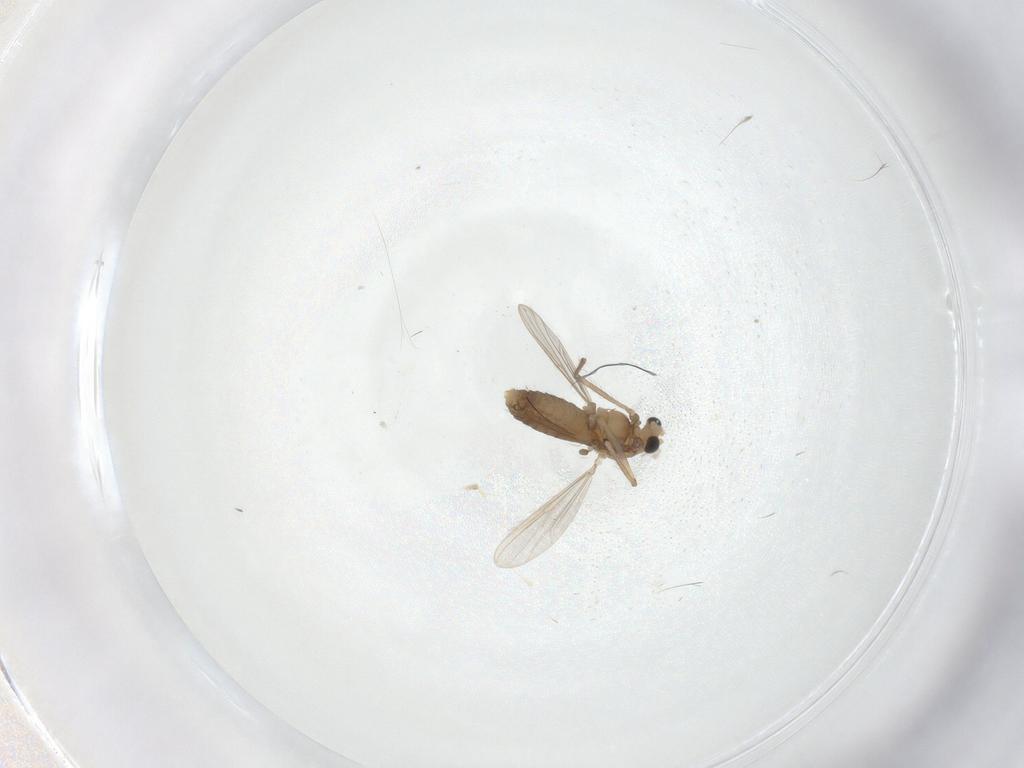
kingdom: Animalia
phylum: Arthropoda
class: Insecta
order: Diptera
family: Chironomidae
